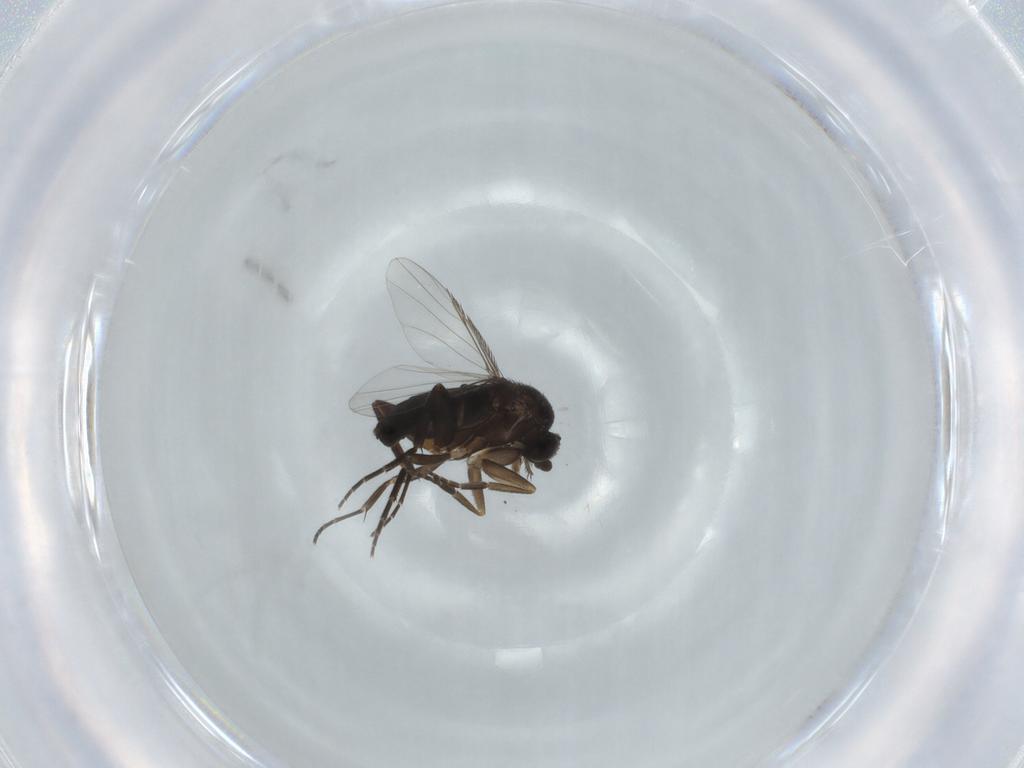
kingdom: Animalia
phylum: Arthropoda
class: Insecta
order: Diptera
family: Phoridae
